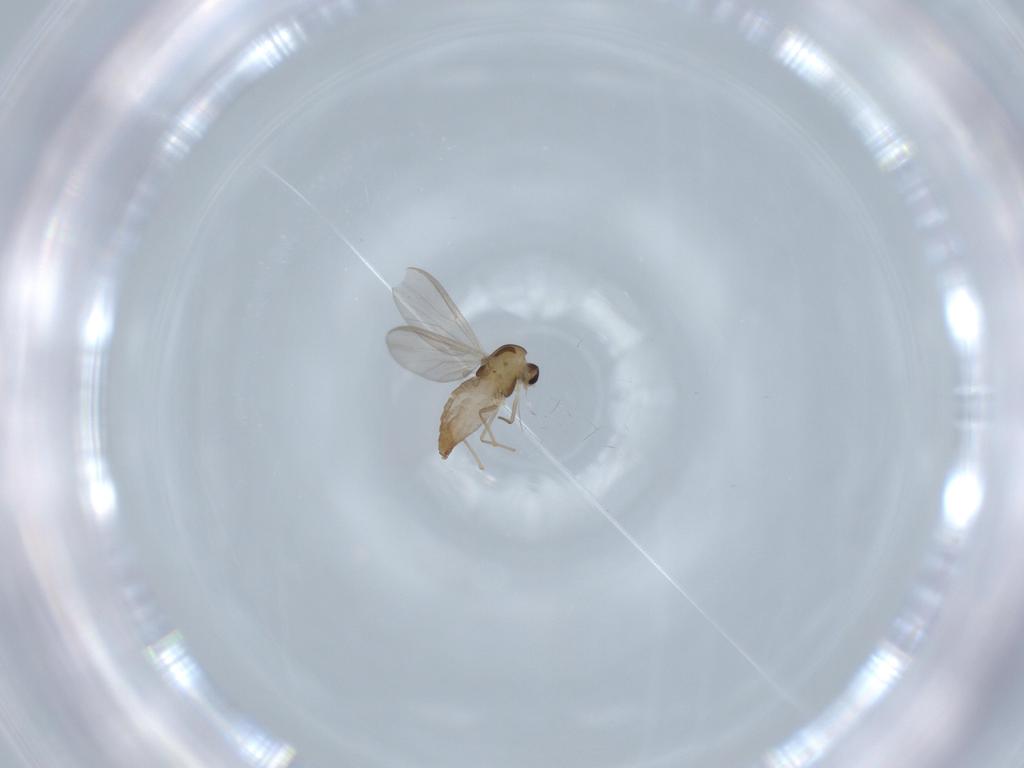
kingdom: Animalia
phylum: Arthropoda
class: Insecta
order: Diptera
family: Chironomidae
